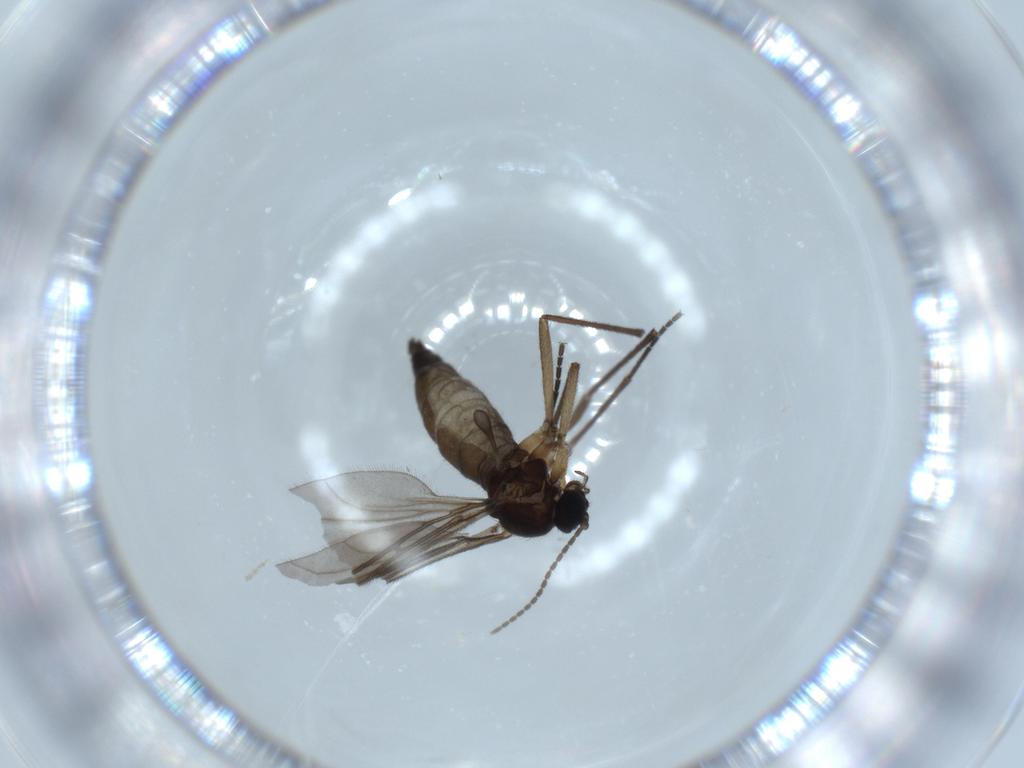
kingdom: Animalia
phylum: Arthropoda
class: Insecta
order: Diptera
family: Sciaridae
